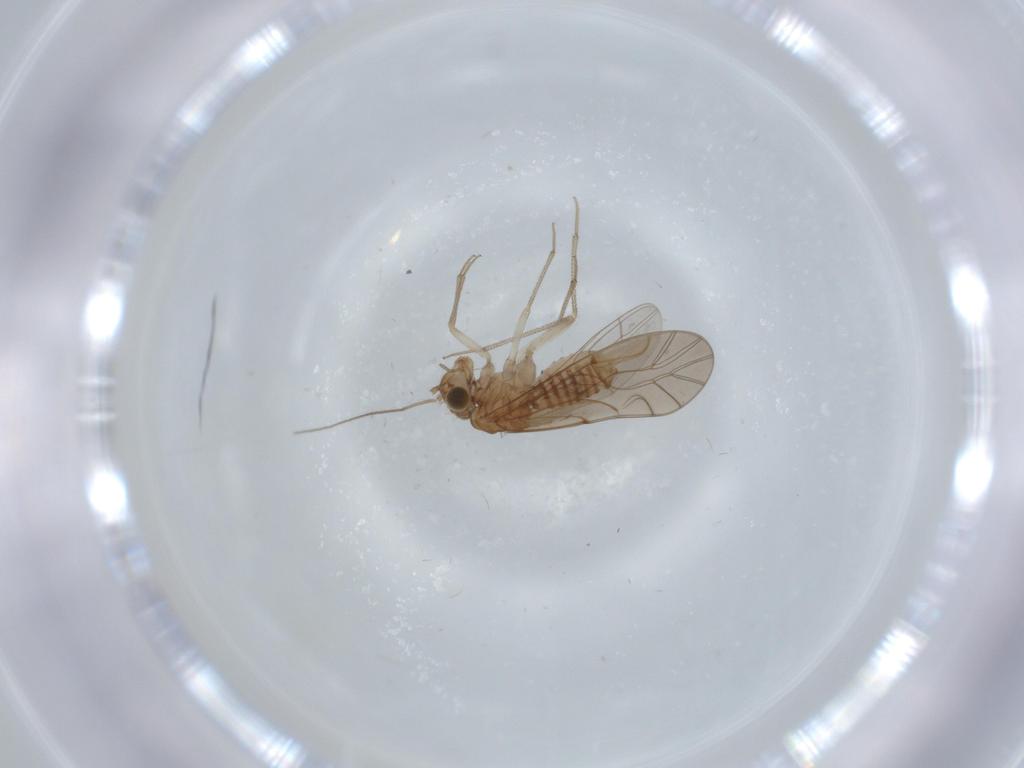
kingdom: Animalia
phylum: Arthropoda
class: Insecta
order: Psocodea
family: Lachesillidae
